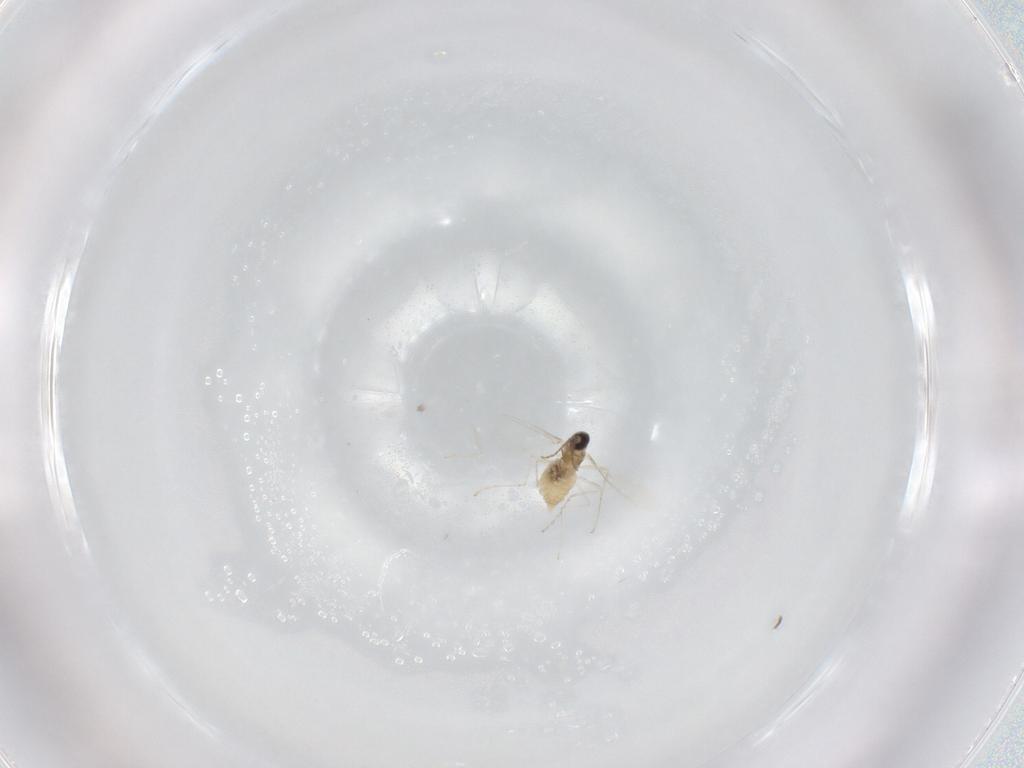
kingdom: Animalia
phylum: Arthropoda
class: Insecta
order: Diptera
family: Cecidomyiidae
